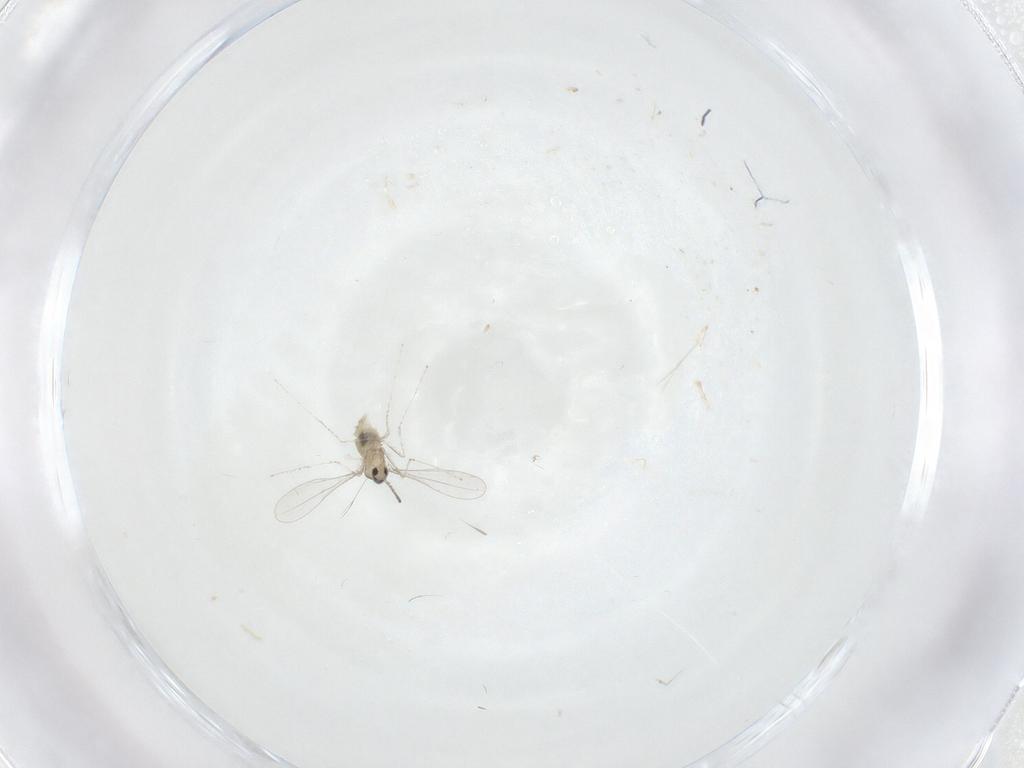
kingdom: Animalia
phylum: Arthropoda
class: Insecta
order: Diptera
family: Cecidomyiidae
